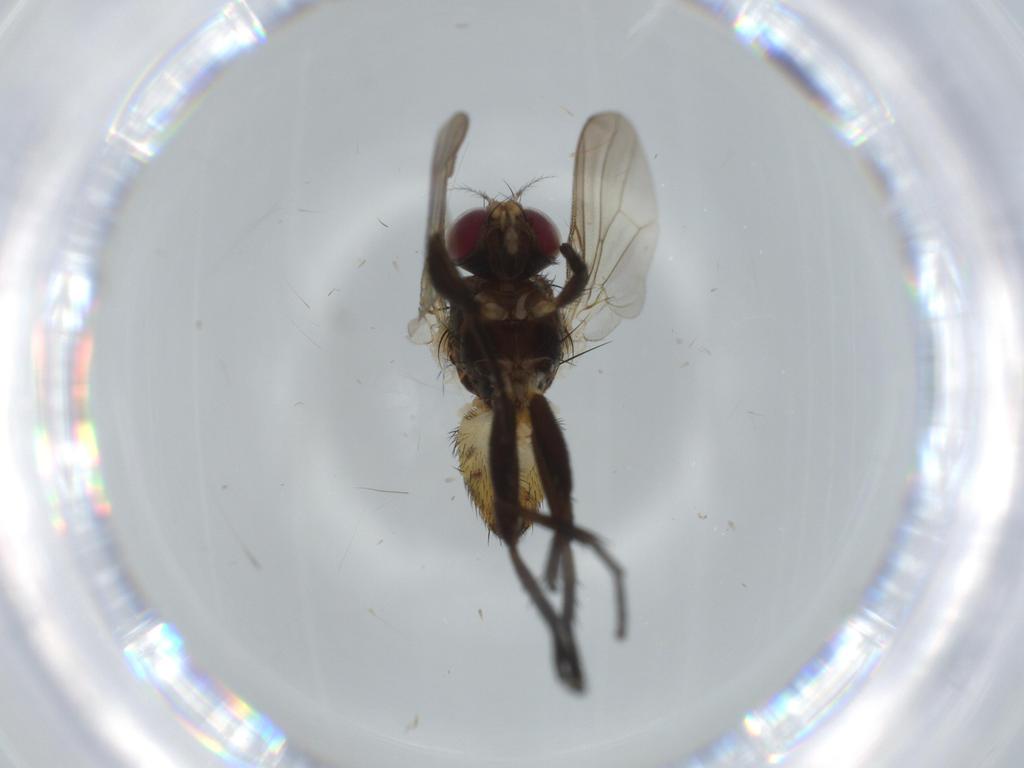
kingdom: Animalia
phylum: Arthropoda
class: Insecta
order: Diptera
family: Anthomyiidae
